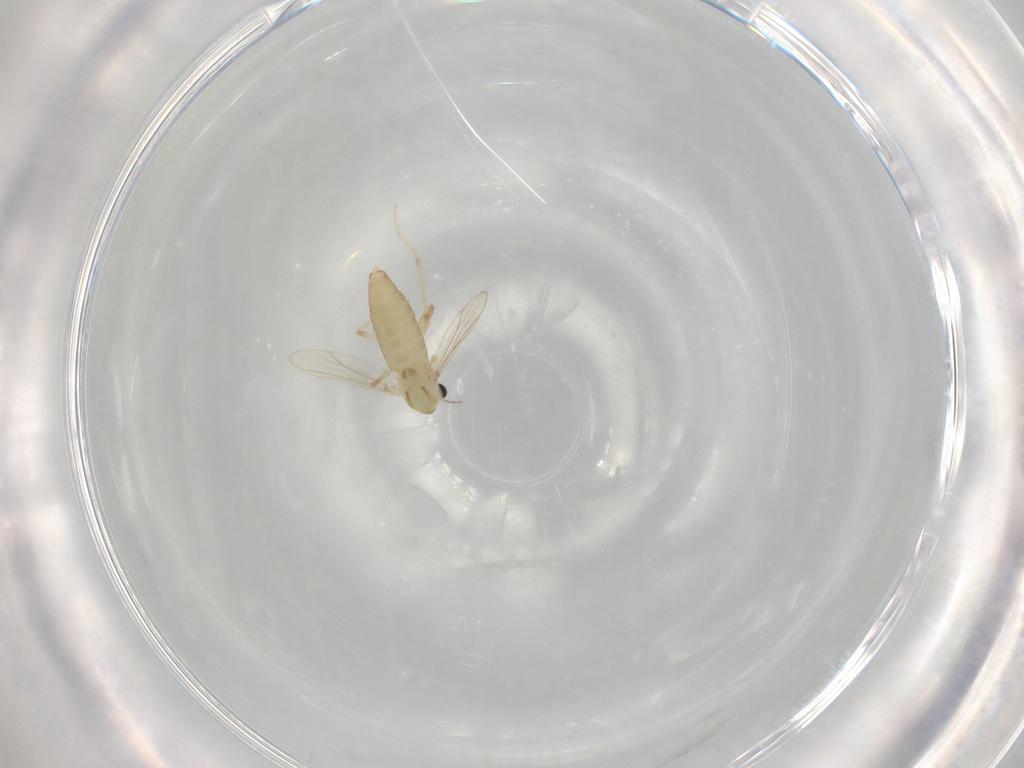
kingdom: Animalia
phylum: Arthropoda
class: Insecta
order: Diptera
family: Chironomidae
